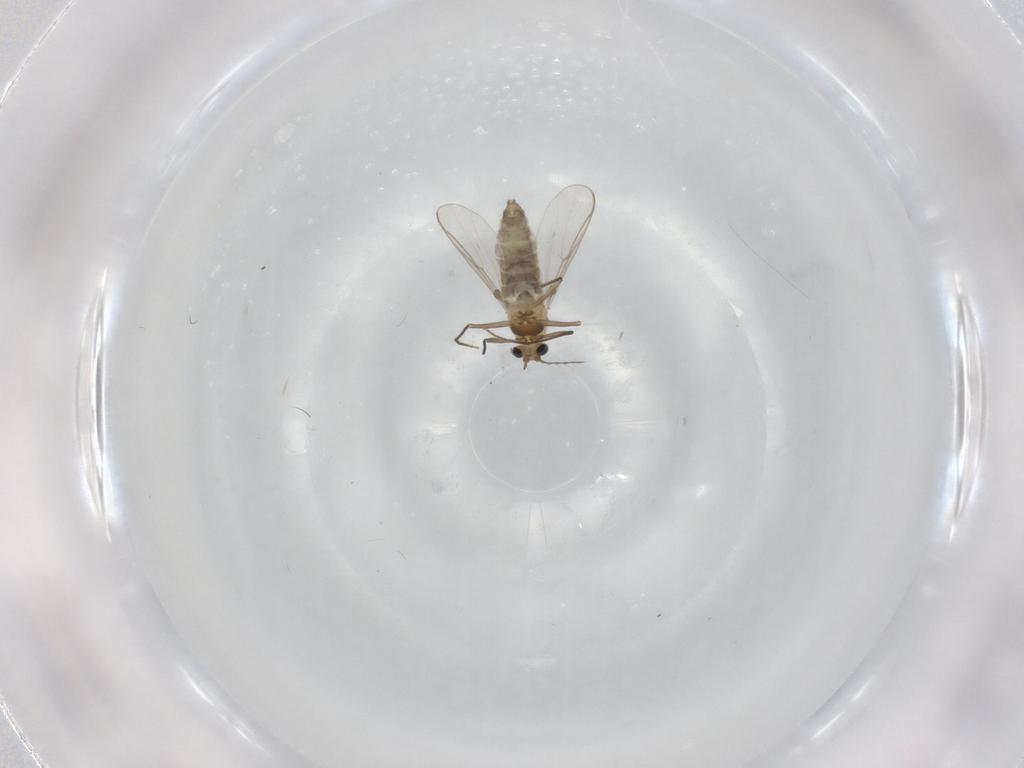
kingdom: Animalia
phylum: Arthropoda
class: Insecta
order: Diptera
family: Chironomidae
